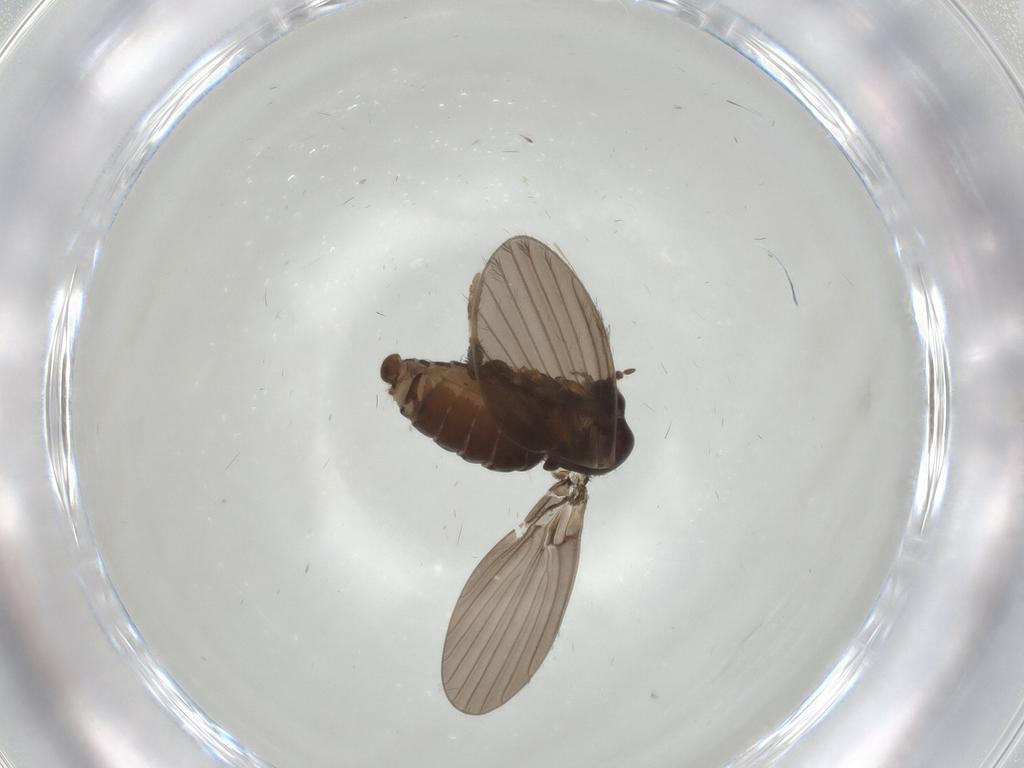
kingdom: Animalia
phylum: Arthropoda
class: Insecta
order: Diptera
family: Psychodidae
